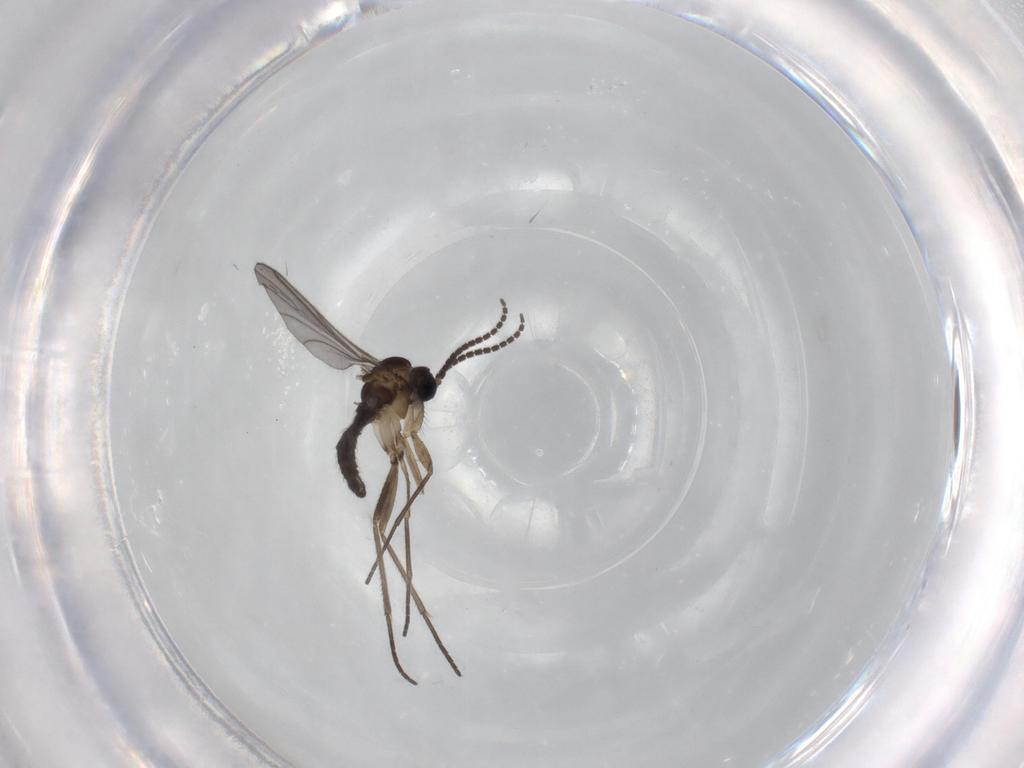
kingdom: Animalia
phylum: Arthropoda
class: Insecta
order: Diptera
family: Sciaridae
